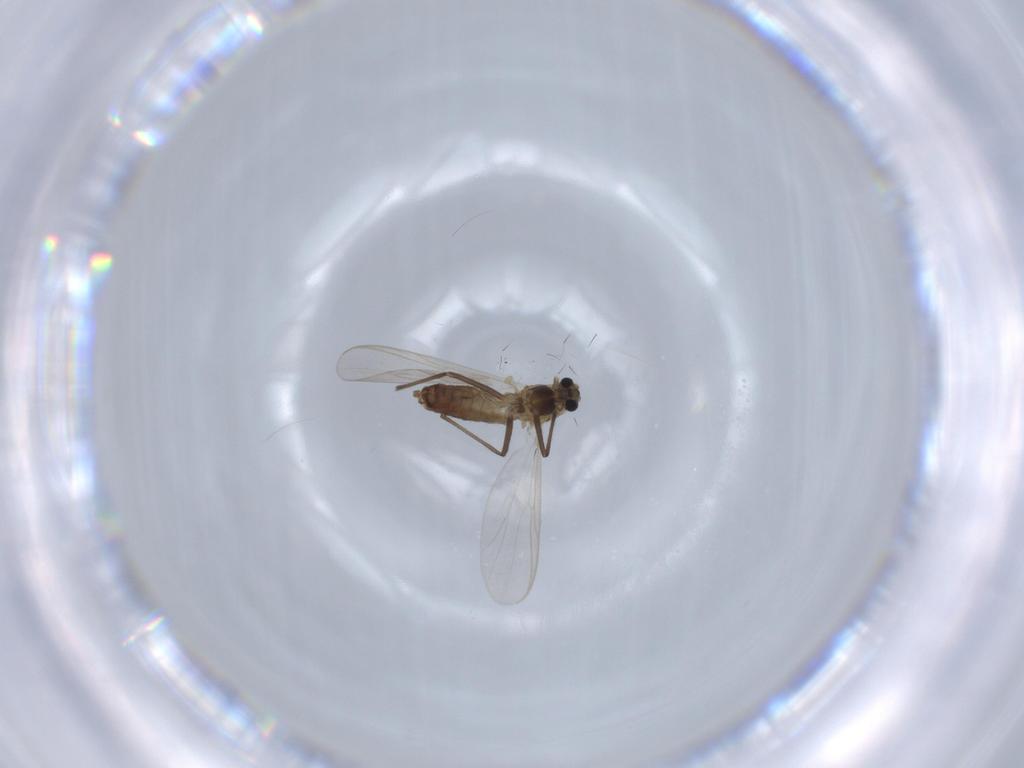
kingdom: Animalia
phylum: Arthropoda
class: Insecta
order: Diptera
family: Chironomidae
